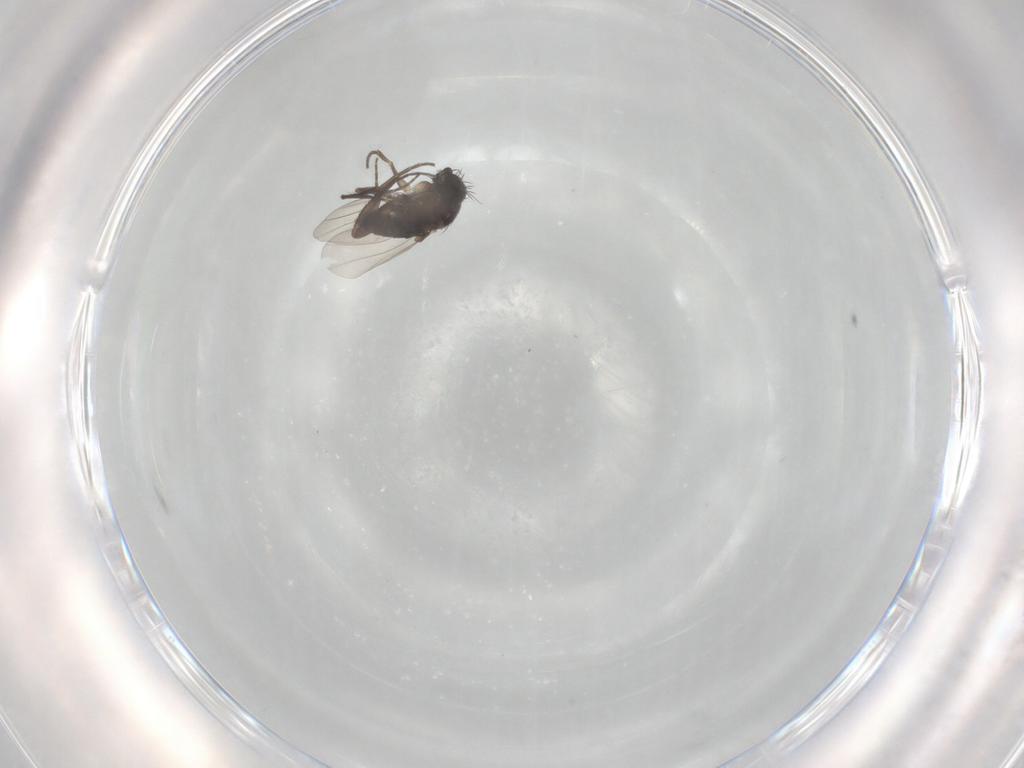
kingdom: Animalia
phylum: Arthropoda
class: Insecta
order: Diptera
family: Phoridae
